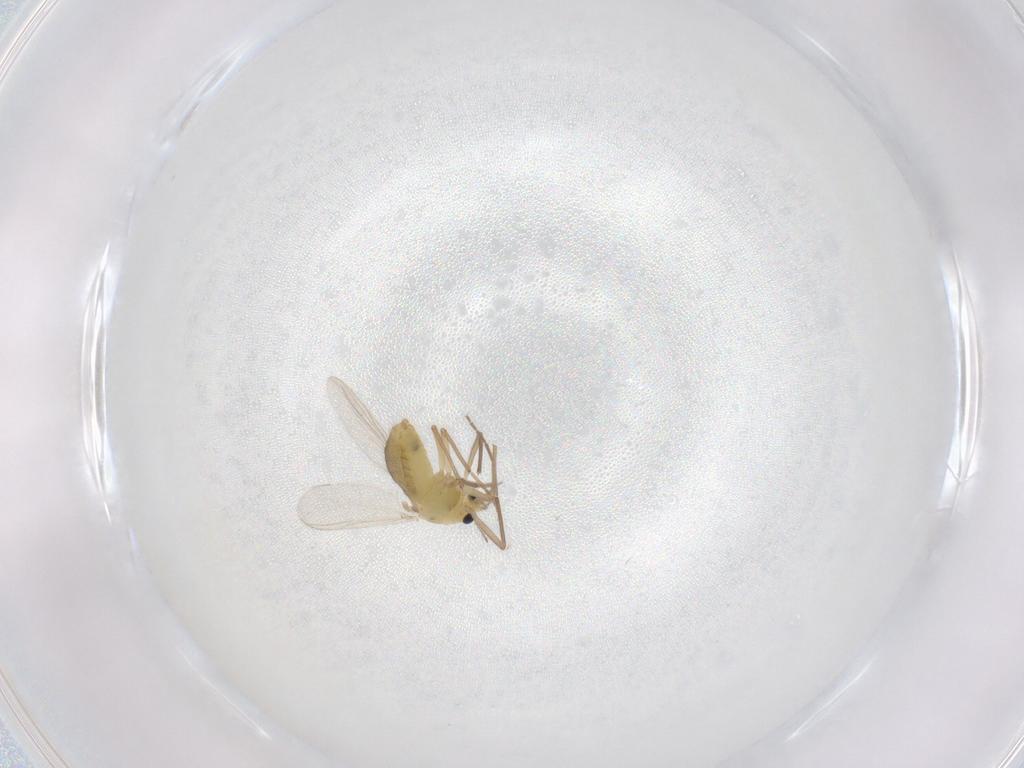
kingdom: Animalia
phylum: Arthropoda
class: Insecta
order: Diptera
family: Chironomidae
